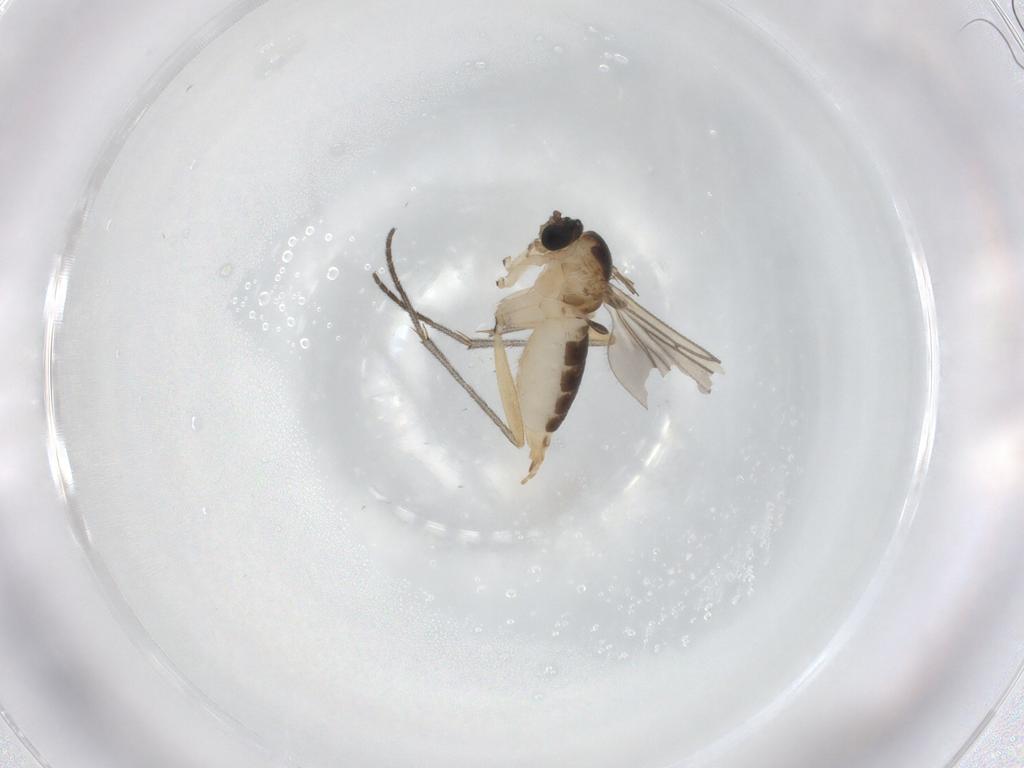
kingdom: Animalia
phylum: Arthropoda
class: Insecta
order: Diptera
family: Sciaridae
